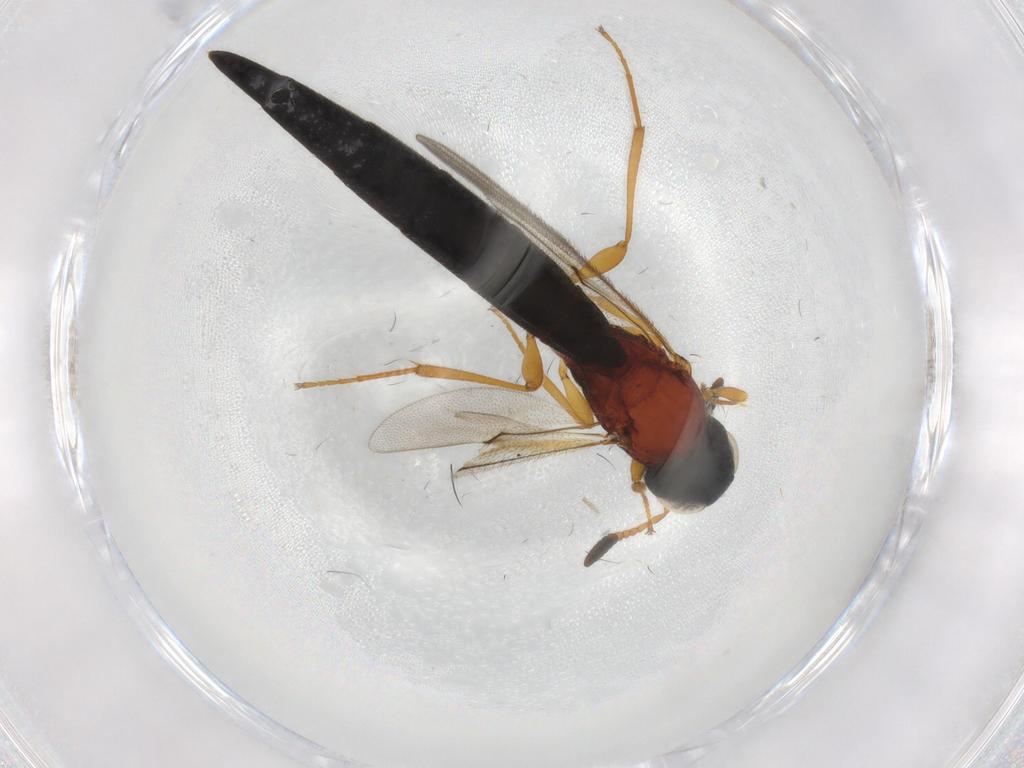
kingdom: Animalia
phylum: Arthropoda
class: Insecta
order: Hymenoptera
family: Scelionidae
